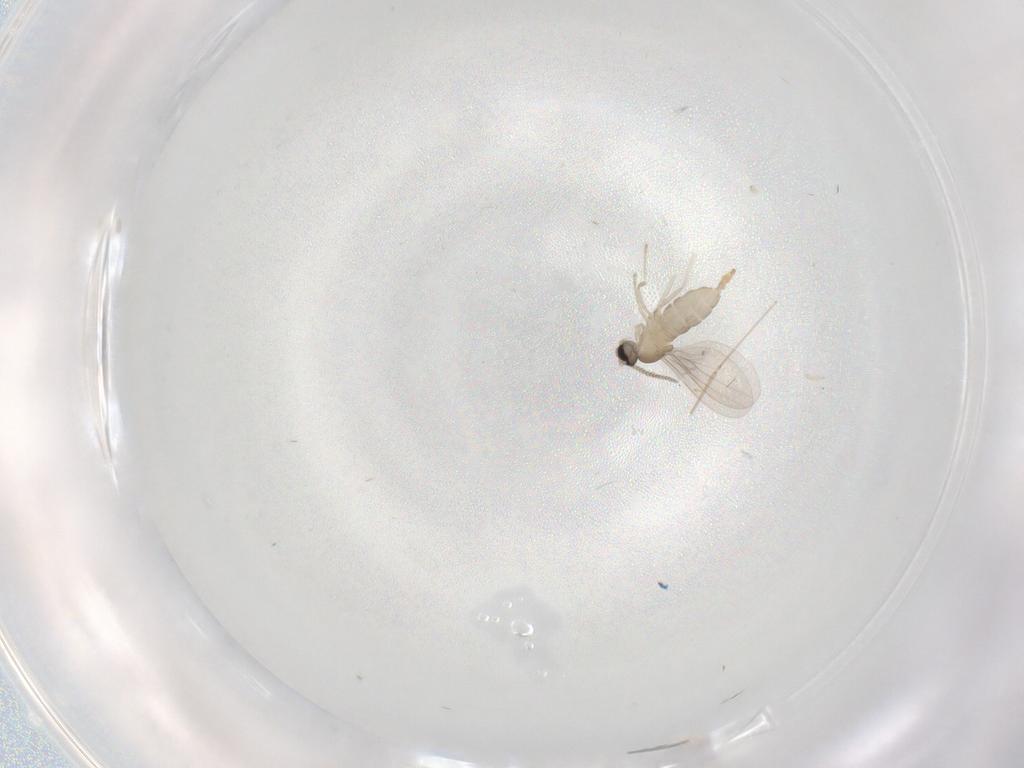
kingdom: Animalia
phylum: Arthropoda
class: Insecta
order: Diptera
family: Cecidomyiidae
